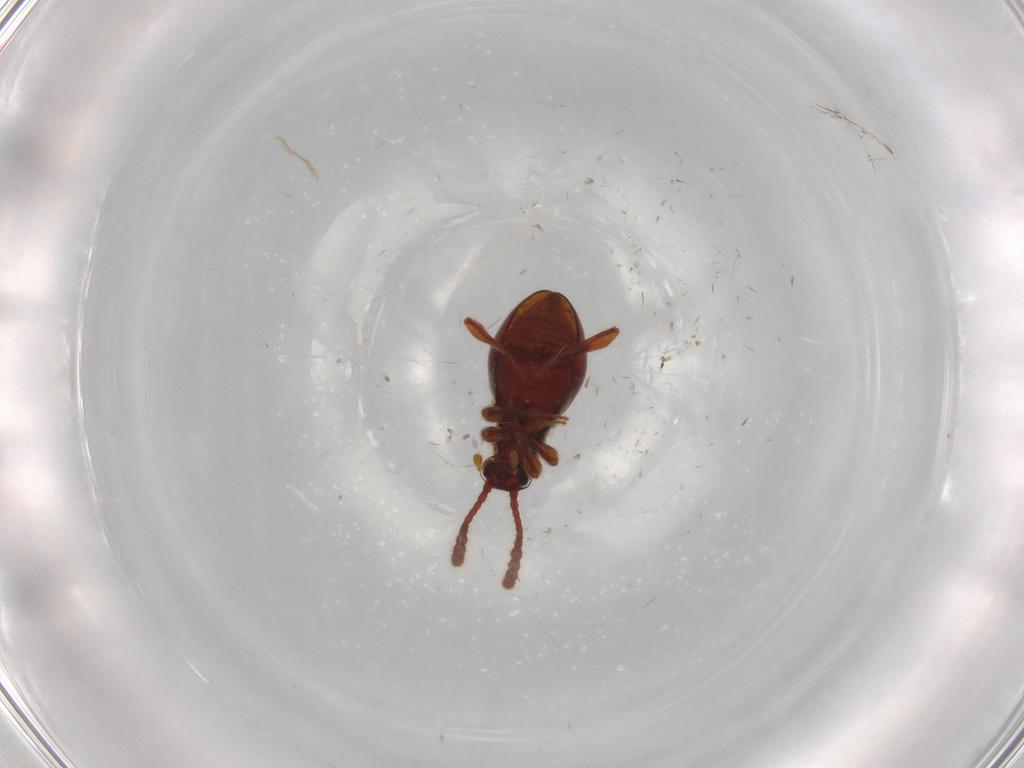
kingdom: Animalia
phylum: Arthropoda
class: Insecta
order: Coleoptera
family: Staphylinidae
